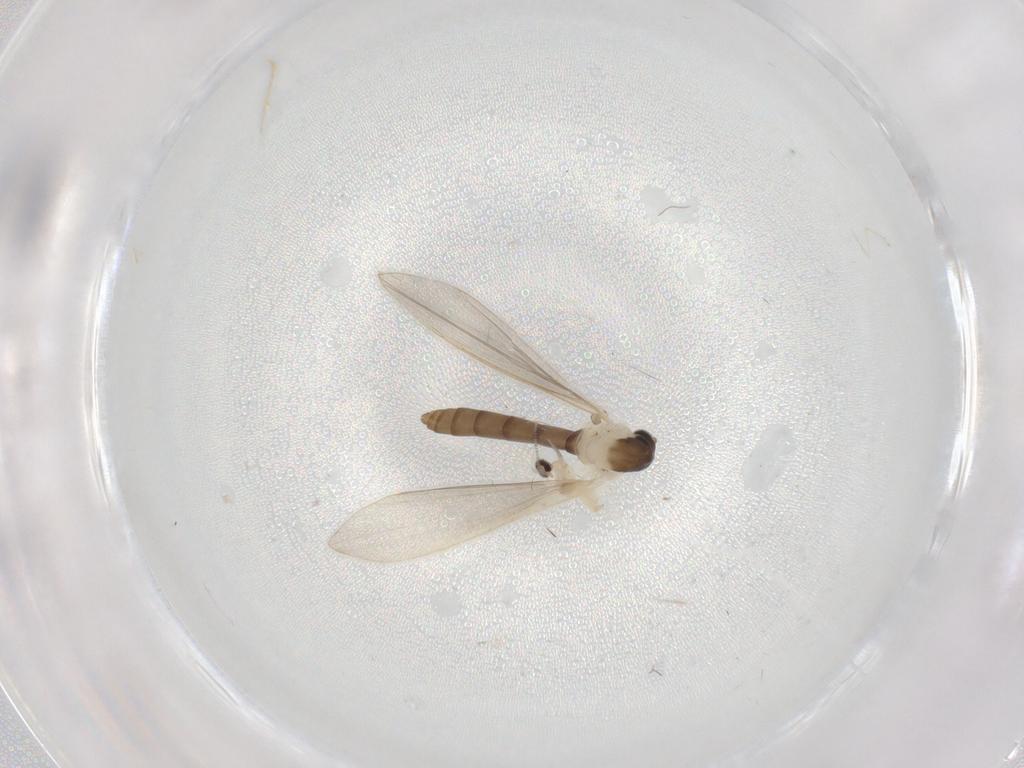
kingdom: Animalia
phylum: Arthropoda
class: Insecta
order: Diptera
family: Psychodidae
